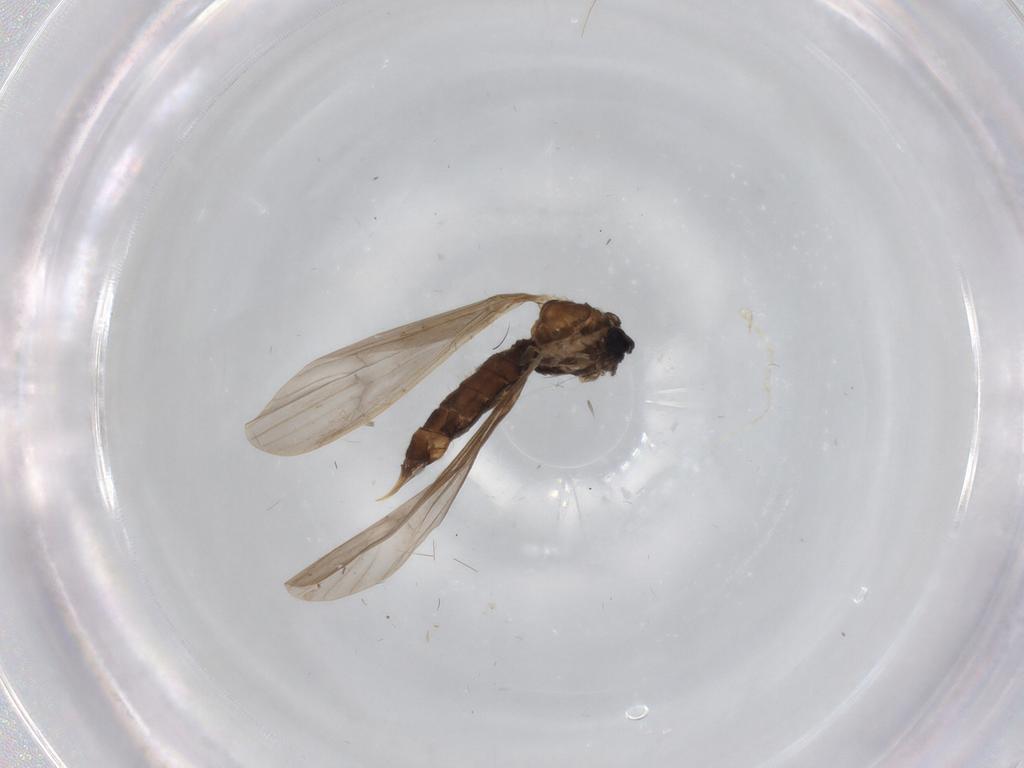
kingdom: Animalia
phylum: Arthropoda
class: Insecta
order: Diptera
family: Limoniidae
